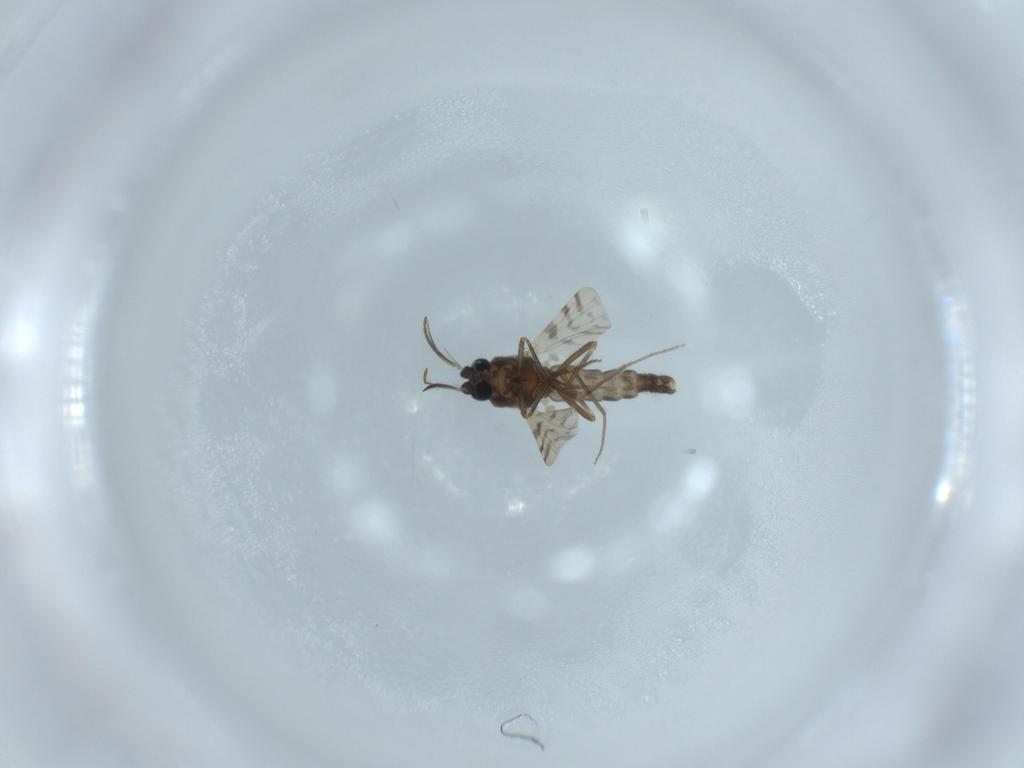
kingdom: Animalia
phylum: Arthropoda
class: Insecta
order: Diptera
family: Ceratopogonidae
